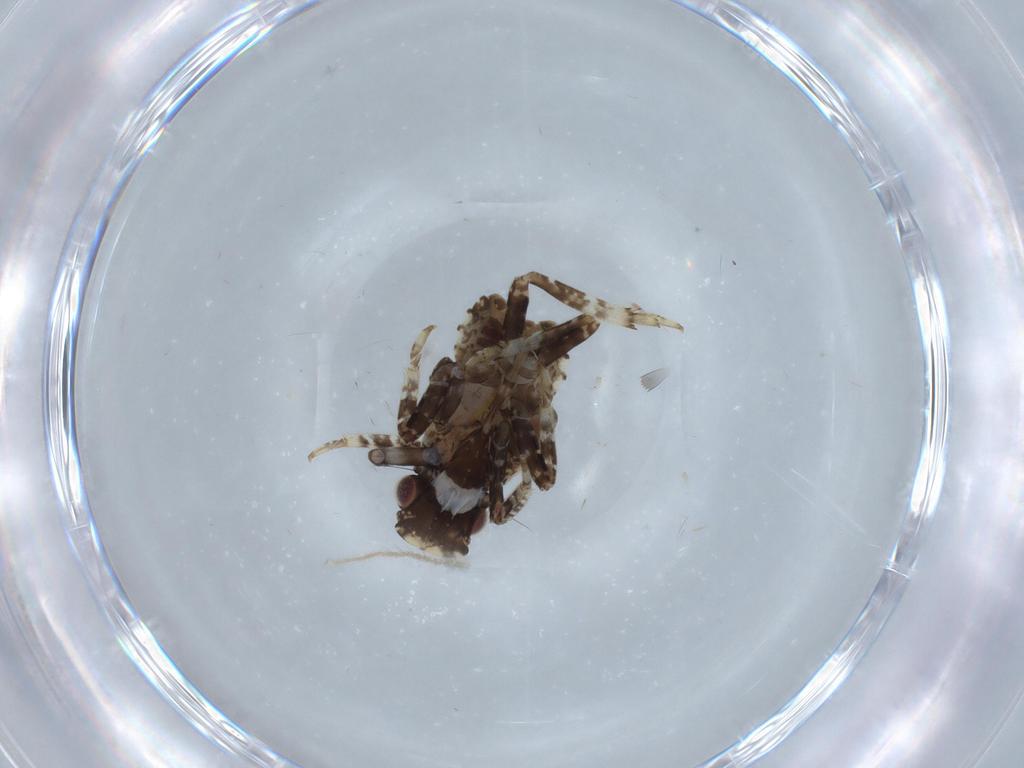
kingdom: Animalia
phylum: Arthropoda
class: Insecta
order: Hemiptera
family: Fulgoridae
